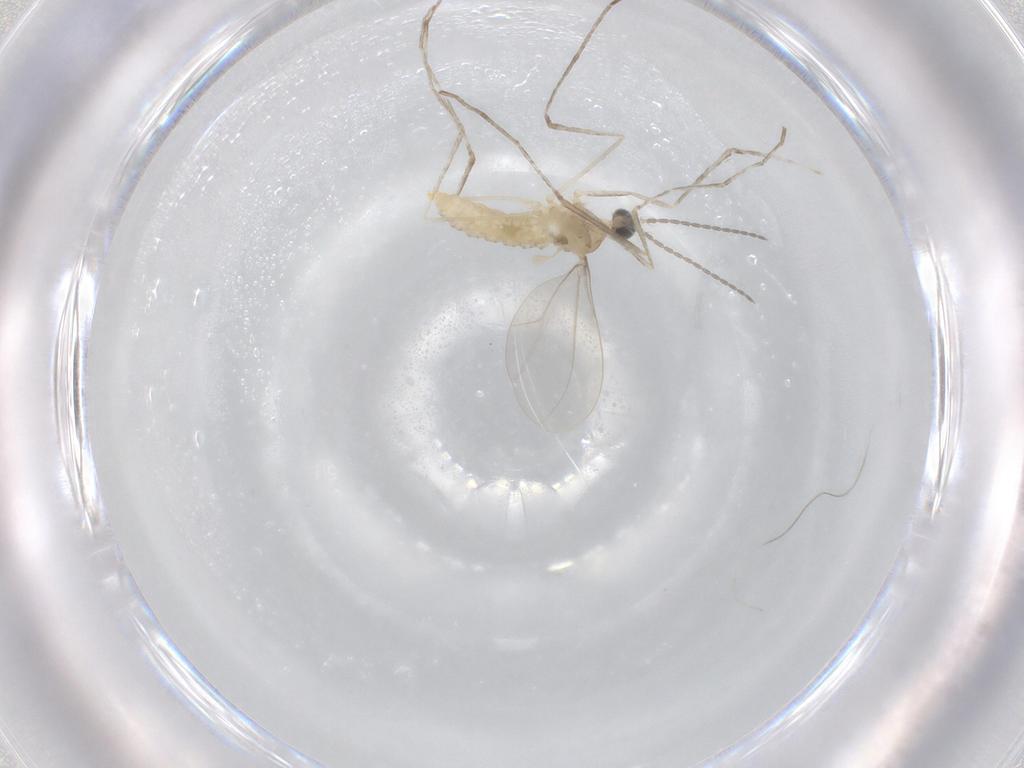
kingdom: Animalia
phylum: Arthropoda
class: Insecta
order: Diptera
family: Cecidomyiidae
